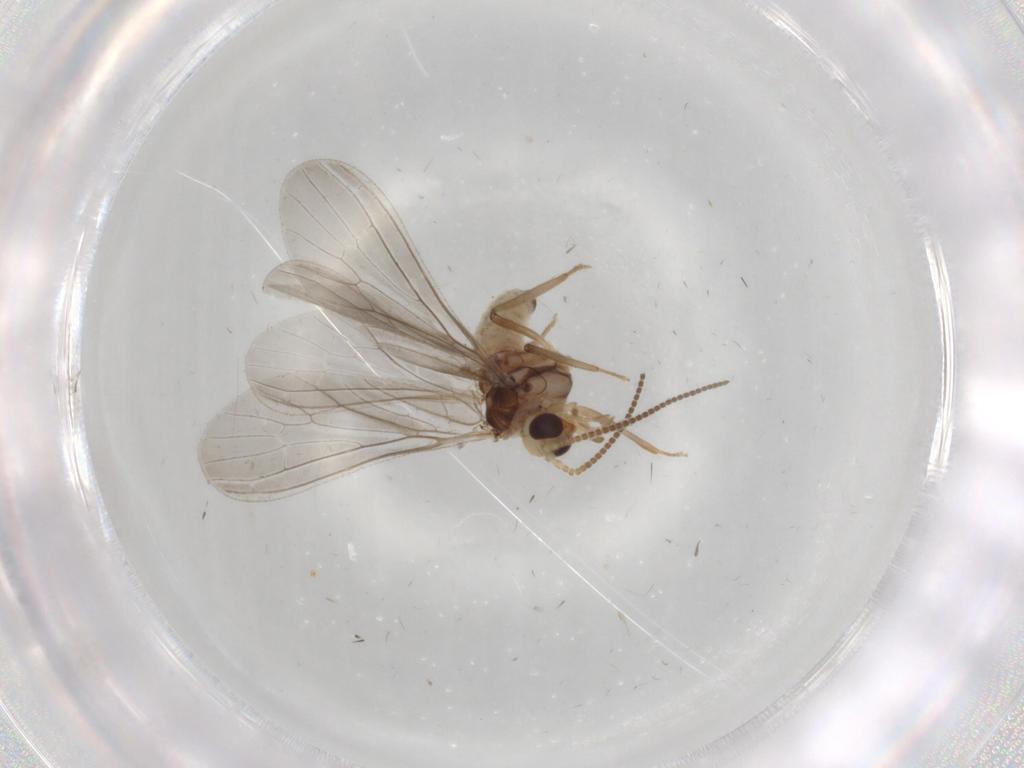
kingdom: Animalia
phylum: Arthropoda
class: Insecta
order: Neuroptera
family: Coniopterygidae
